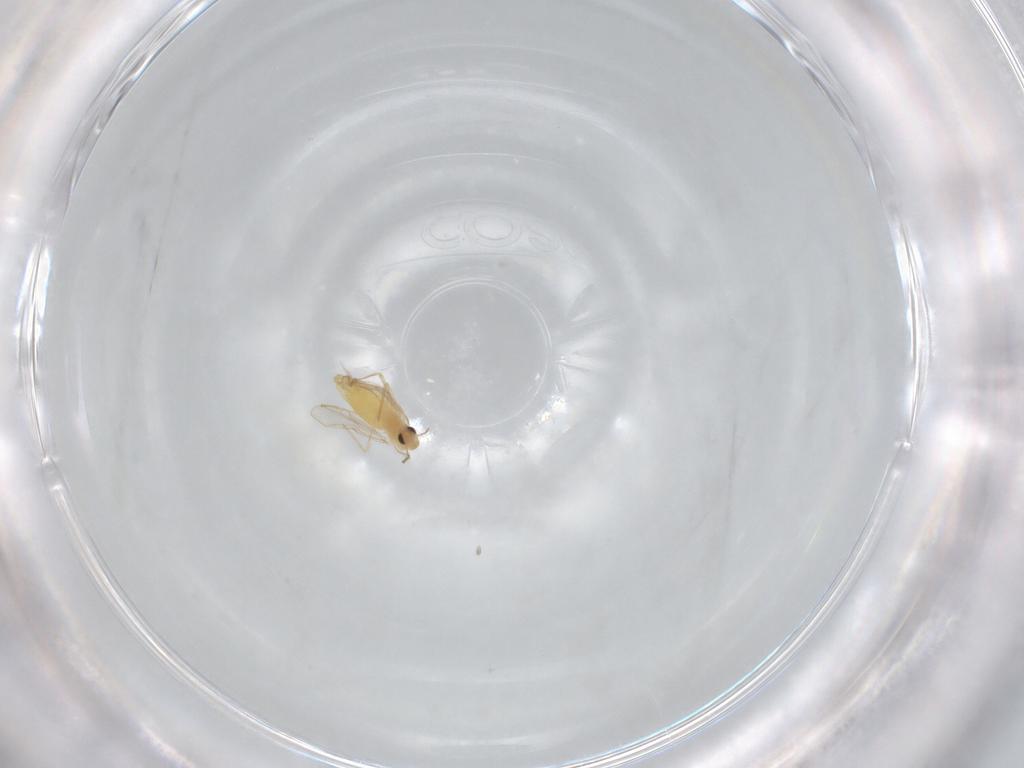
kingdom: Animalia
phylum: Arthropoda
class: Insecta
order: Diptera
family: Chironomidae
